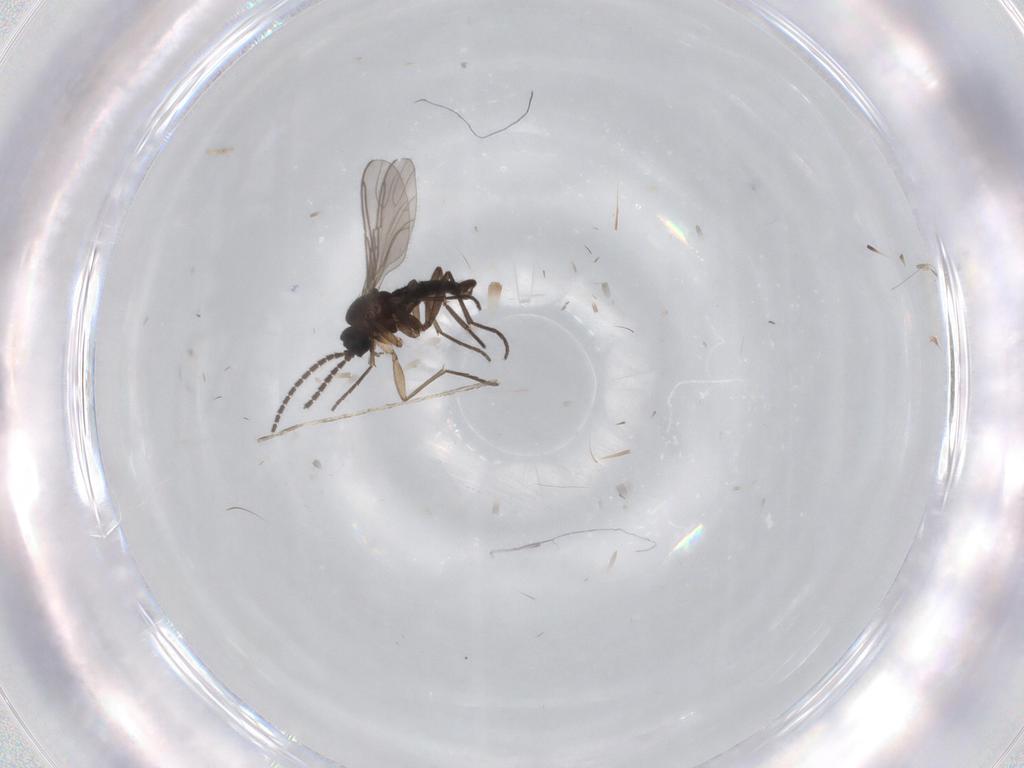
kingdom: Animalia
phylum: Arthropoda
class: Insecta
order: Diptera
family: Sciaridae
